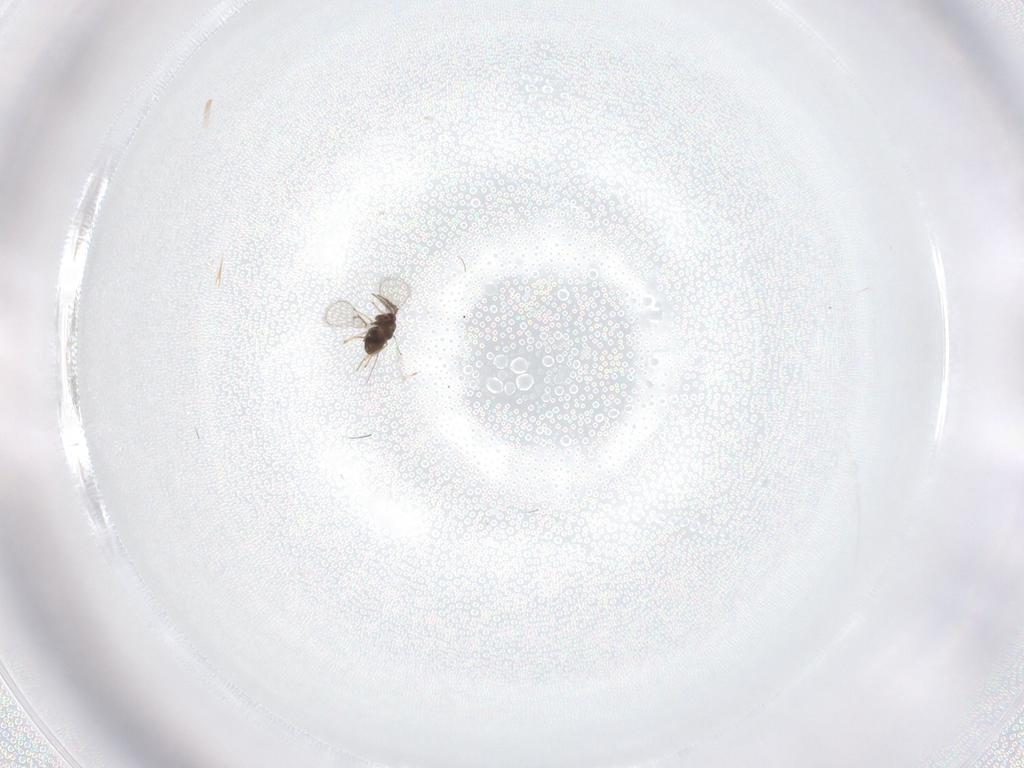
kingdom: Animalia
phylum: Arthropoda
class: Insecta
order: Hymenoptera
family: Trichogrammatidae
